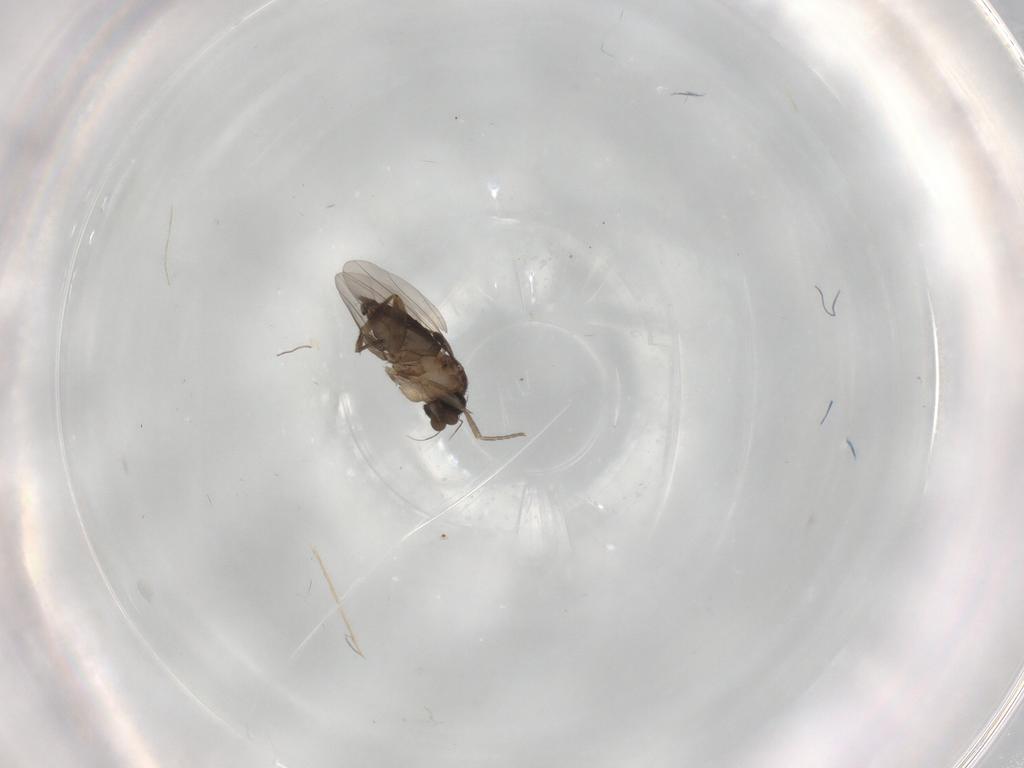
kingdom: Animalia
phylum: Arthropoda
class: Insecta
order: Diptera
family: Phoridae
